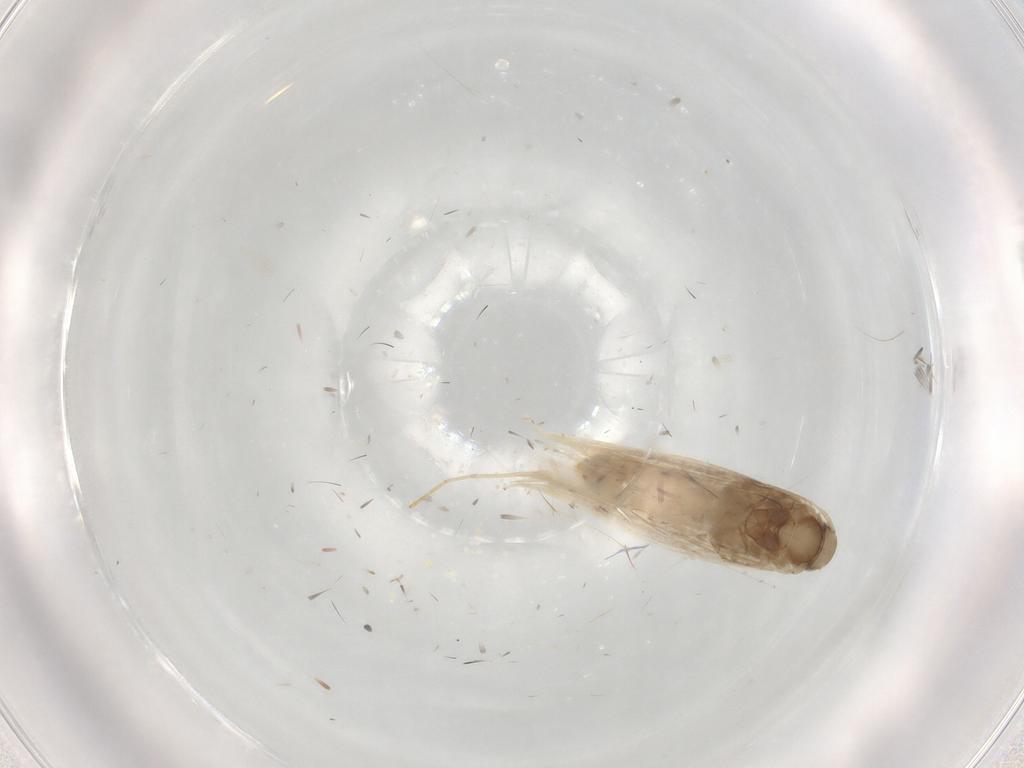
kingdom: Animalia
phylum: Arthropoda
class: Insecta
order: Lepidoptera
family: Gracillariidae
